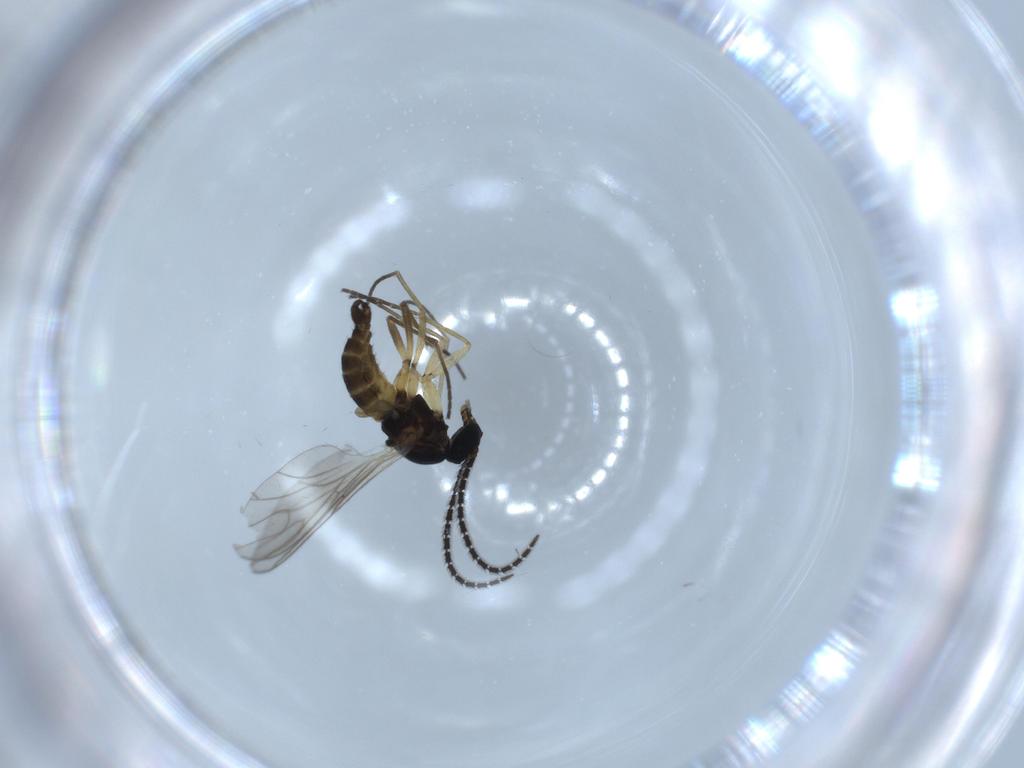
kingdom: Animalia
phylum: Arthropoda
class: Insecta
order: Diptera
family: Sciaridae
